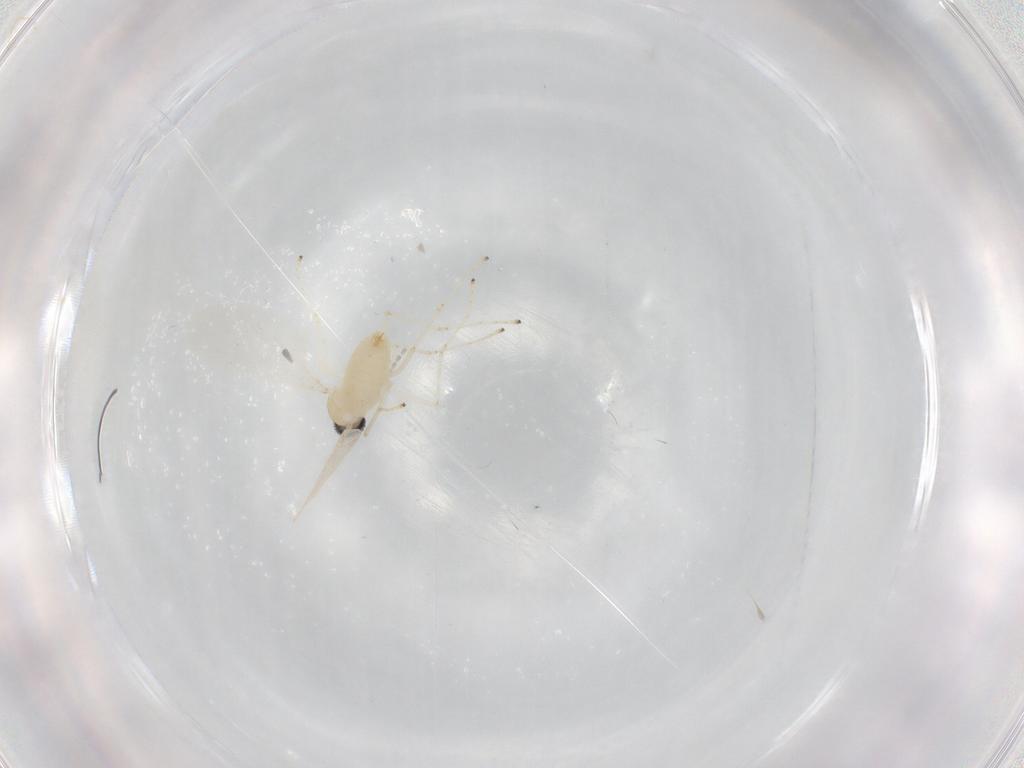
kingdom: Animalia
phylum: Arthropoda
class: Insecta
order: Diptera
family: Cecidomyiidae
